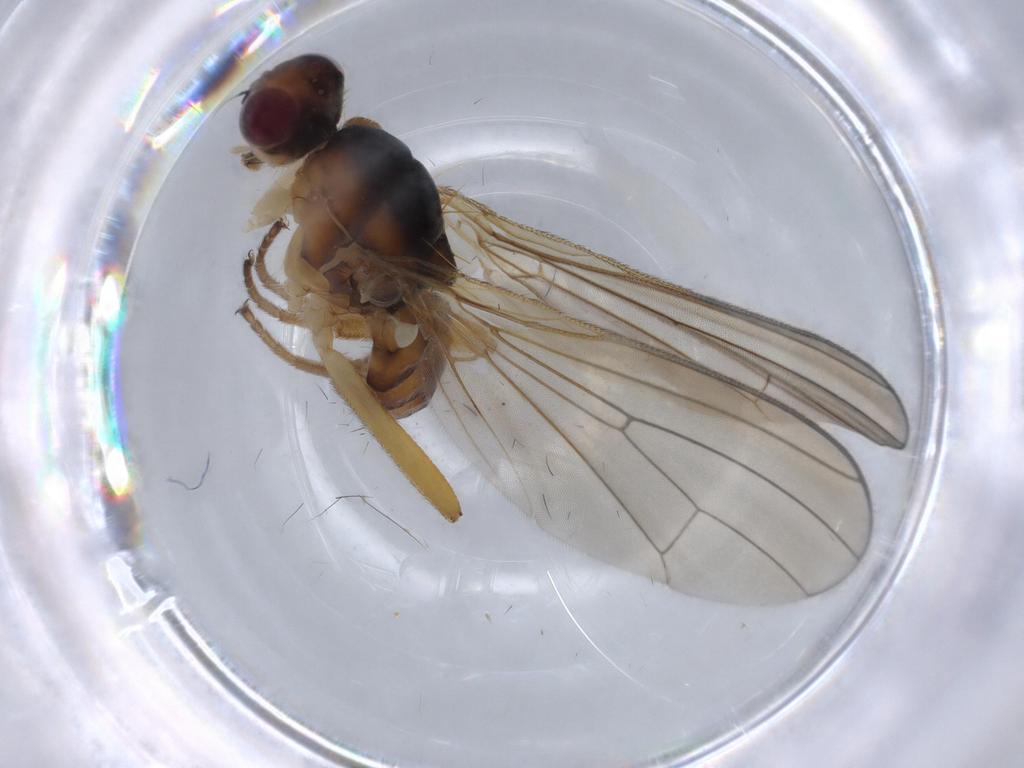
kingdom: Animalia
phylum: Arthropoda
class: Insecta
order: Diptera
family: Scathophagidae
